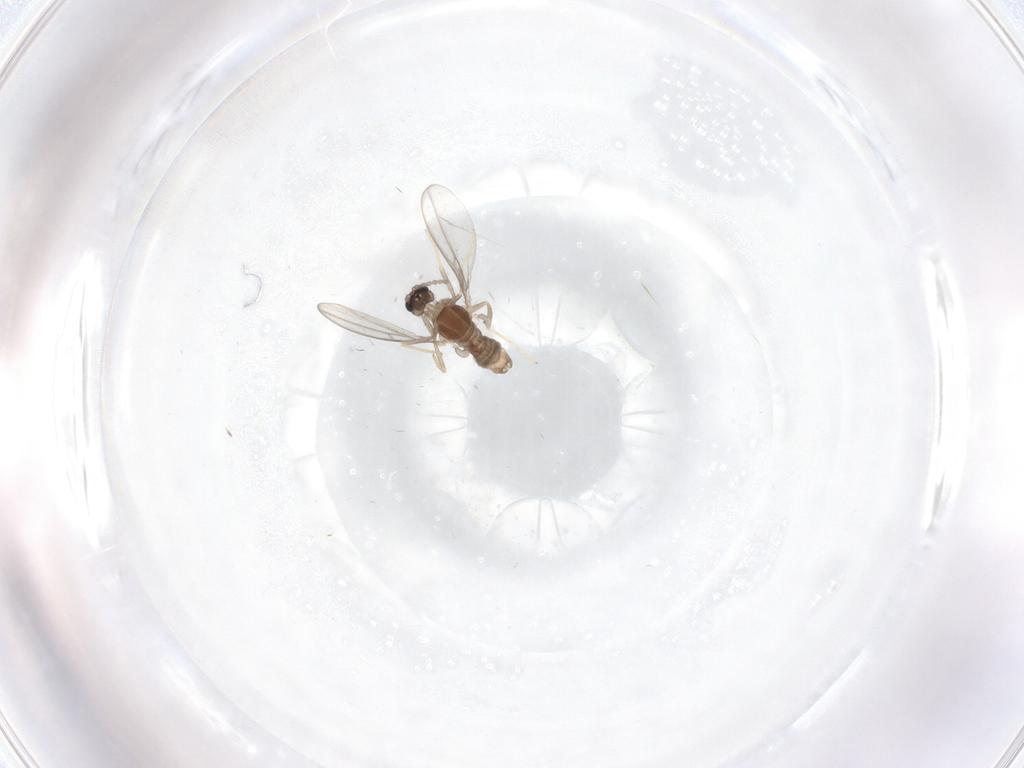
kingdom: Animalia
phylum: Arthropoda
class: Insecta
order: Diptera
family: Cecidomyiidae
